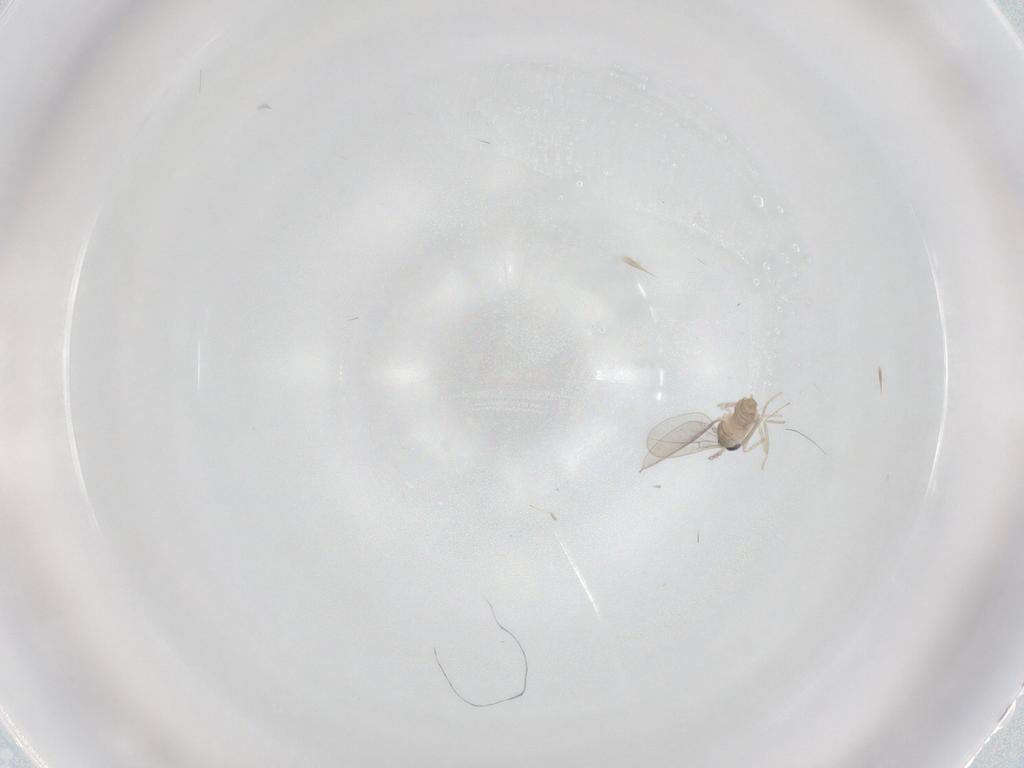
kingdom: Animalia
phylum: Arthropoda
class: Insecta
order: Diptera
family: Cecidomyiidae
